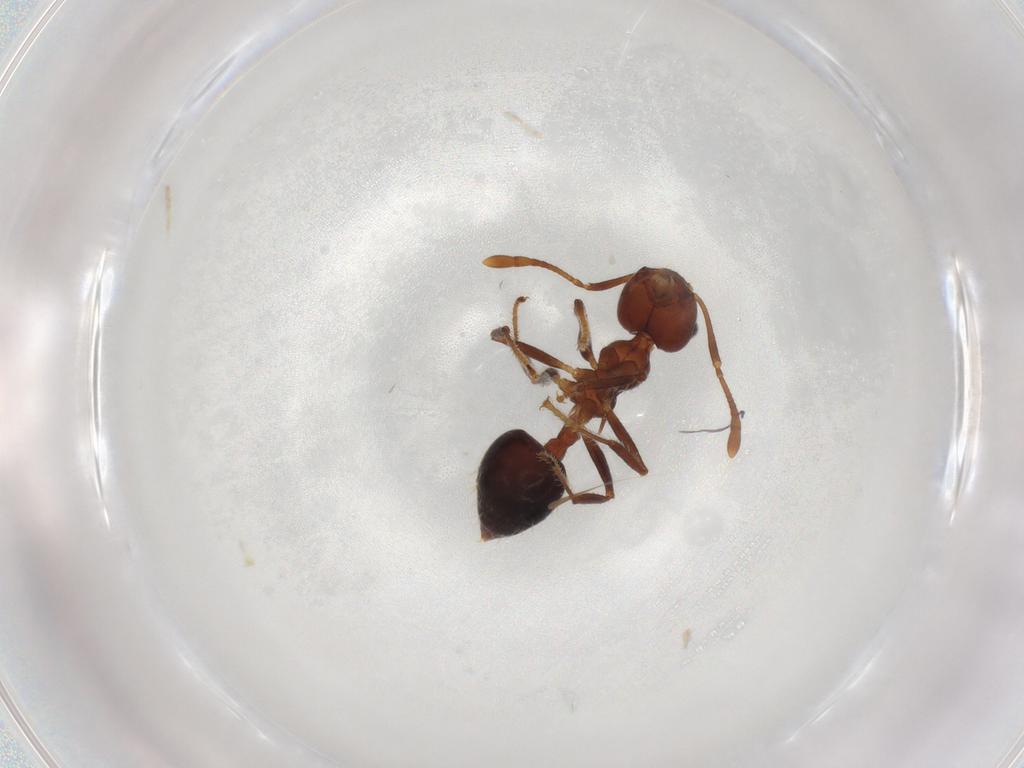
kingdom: Animalia
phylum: Arthropoda
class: Insecta
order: Hymenoptera
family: Formicidae
